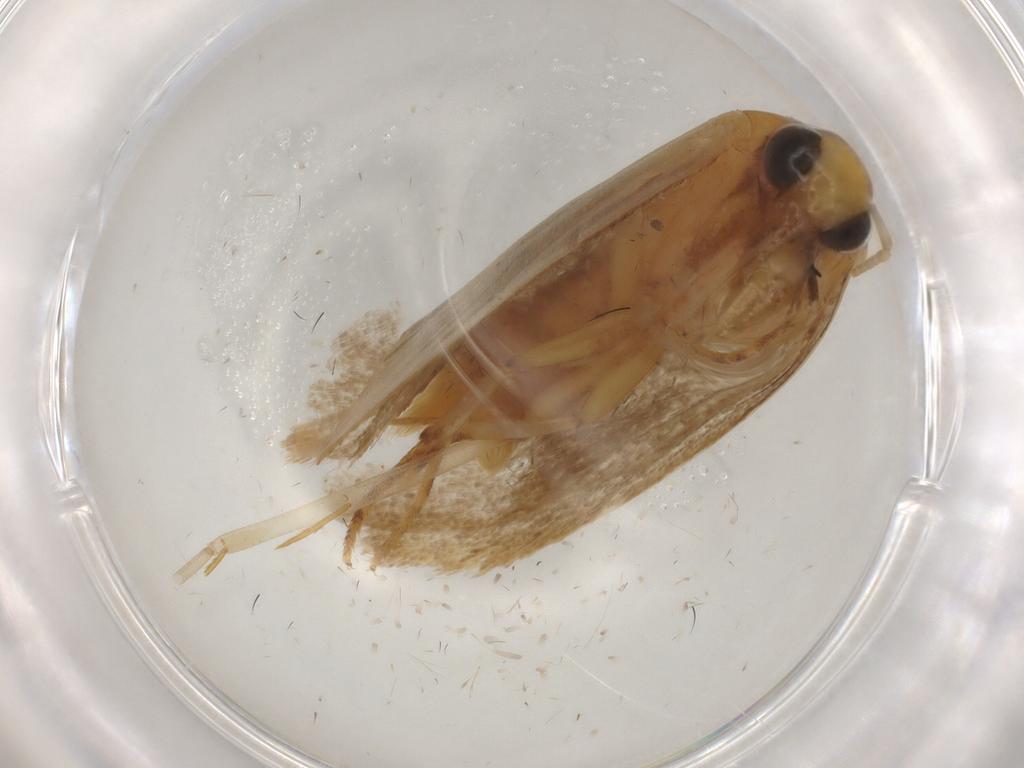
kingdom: Animalia
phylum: Arthropoda
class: Insecta
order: Lepidoptera
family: Autostichidae
